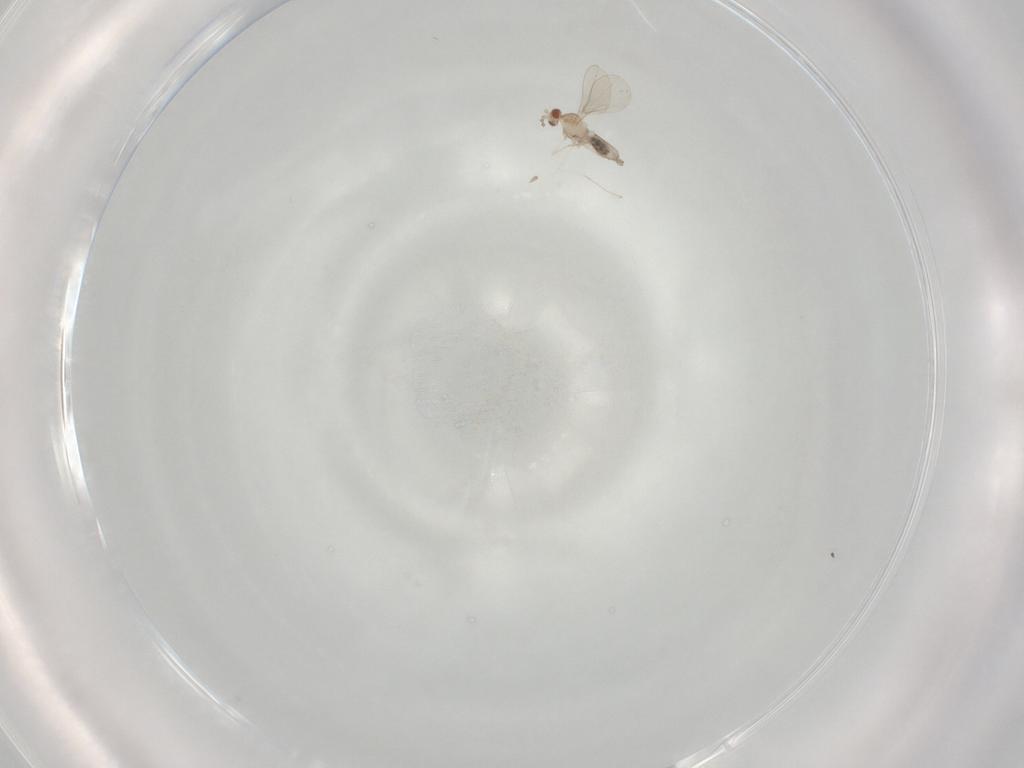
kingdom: Animalia
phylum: Arthropoda
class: Insecta
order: Diptera
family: Cecidomyiidae
